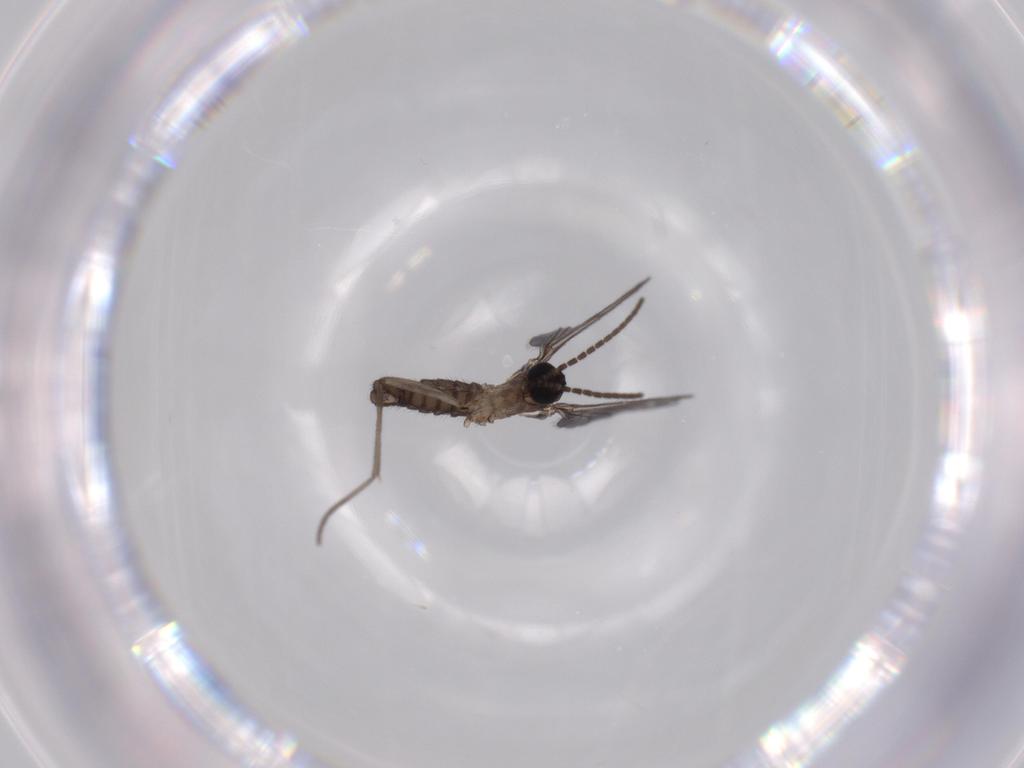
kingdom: Animalia
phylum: Arthropoda
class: Insecta
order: Diptera
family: Sciaridae
